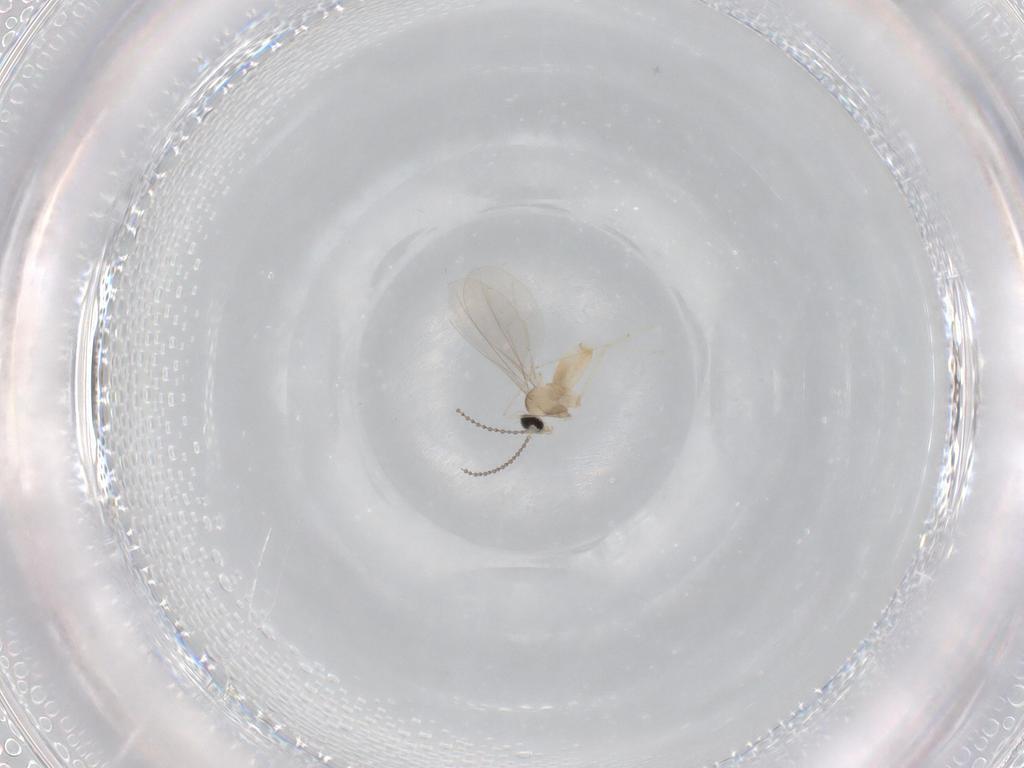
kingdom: Animalia
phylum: Arthropoda
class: Insecta
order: Diptera
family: Cecidomyiidae
